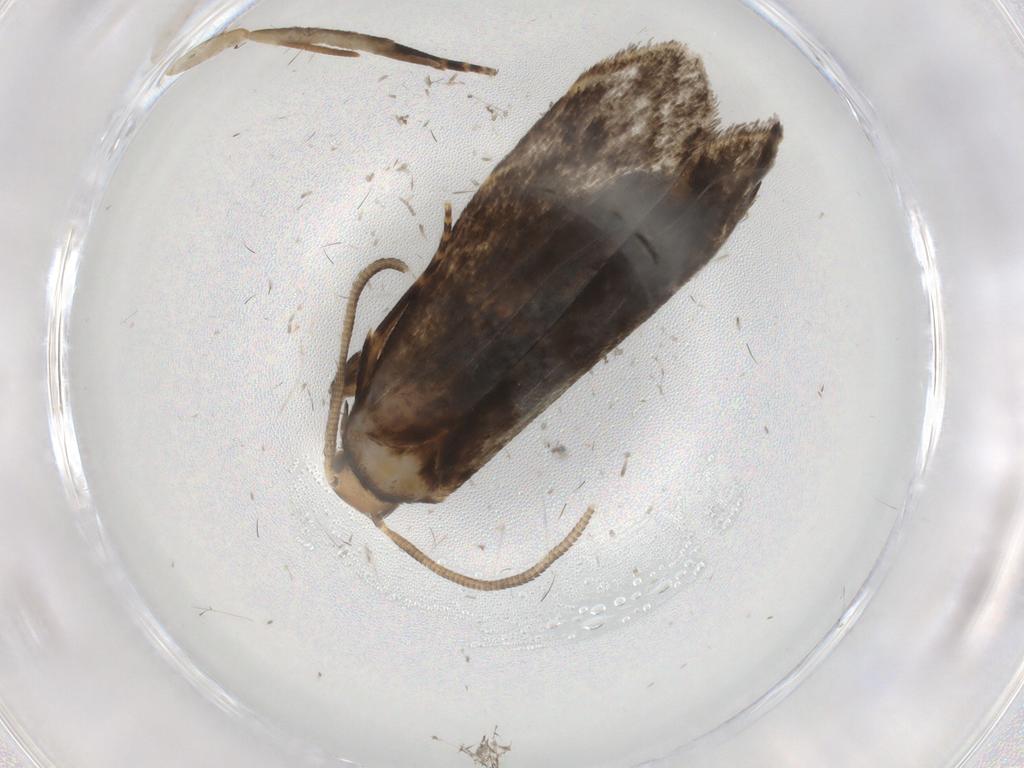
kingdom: Animalia
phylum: Arthropoda
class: Insecta
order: Lepidoptera
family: Dryadaulidae
